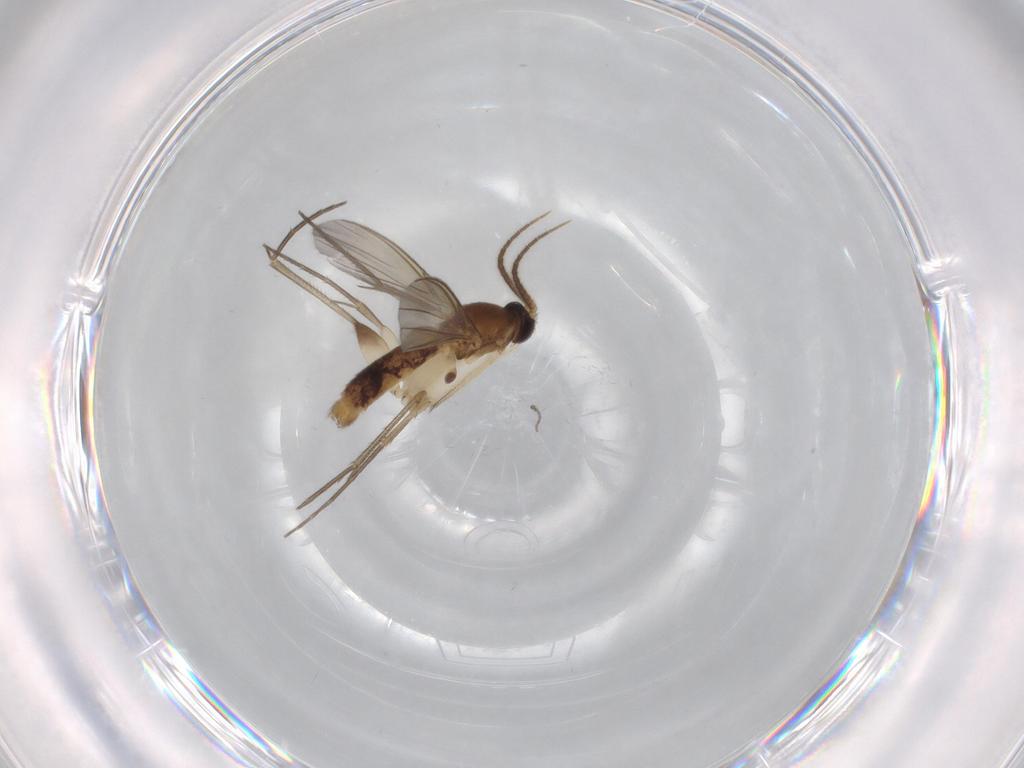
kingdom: Animalia
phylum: Arthropoda
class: Insecta
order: Diptera
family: Mycetophilidae
